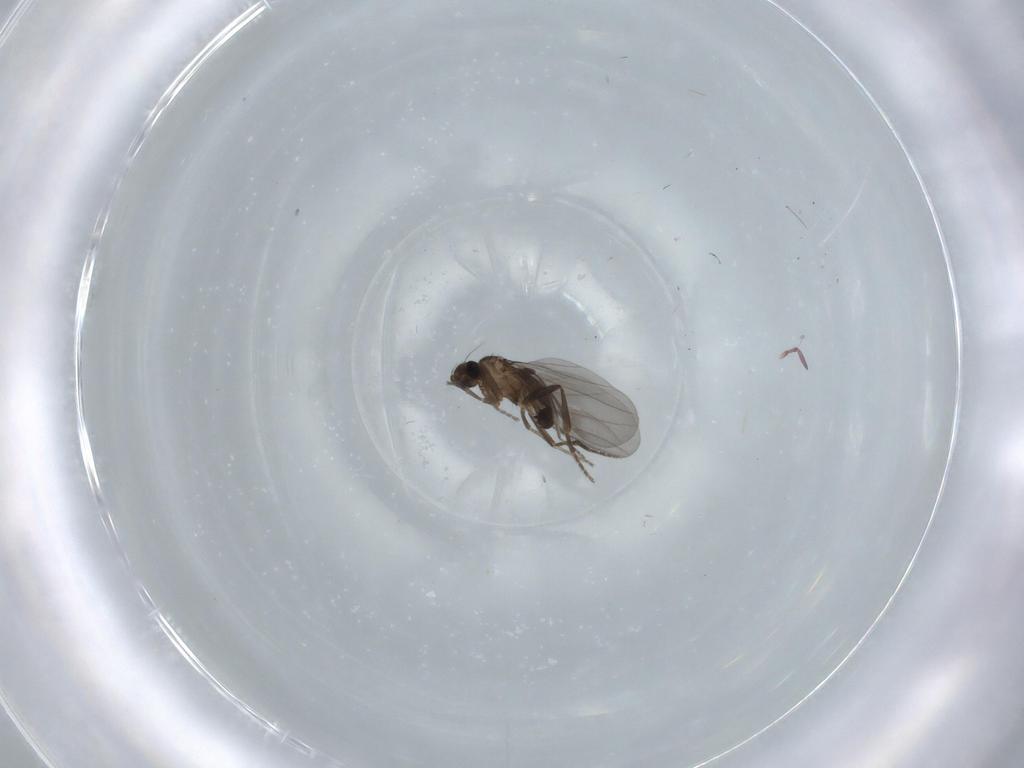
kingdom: Animalia
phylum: Arthropoda
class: Insecta
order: Diptera
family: Phoridae
